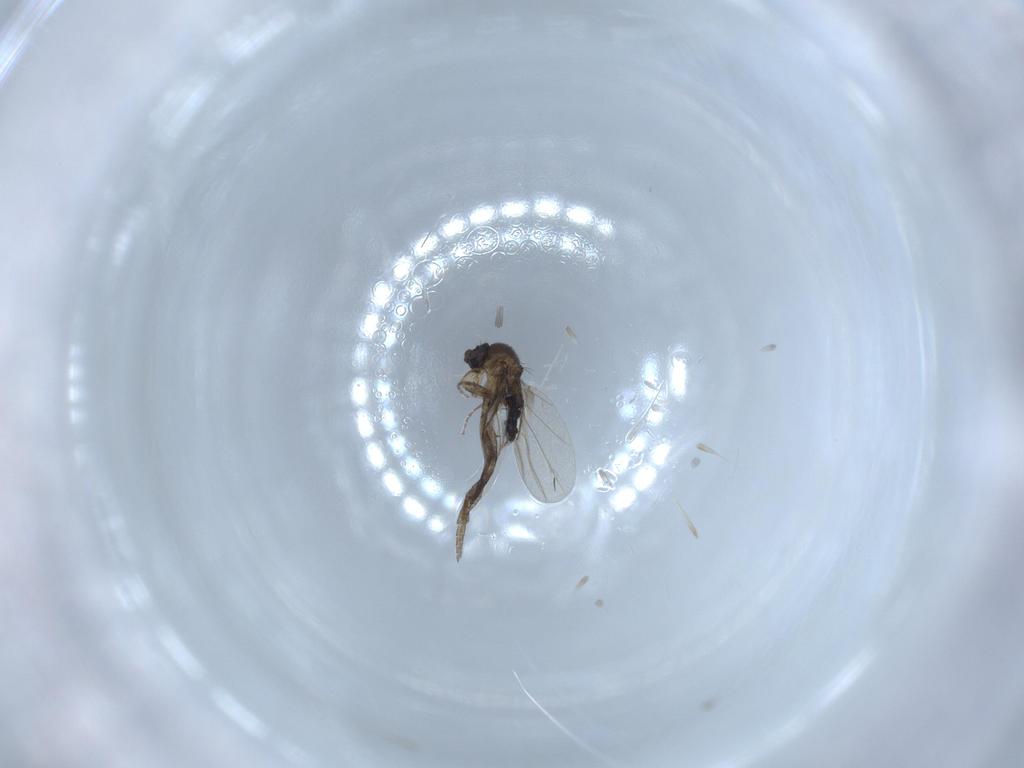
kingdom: Animalia
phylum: Arthropoda
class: Insecta
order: Diptera
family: Phoridae
